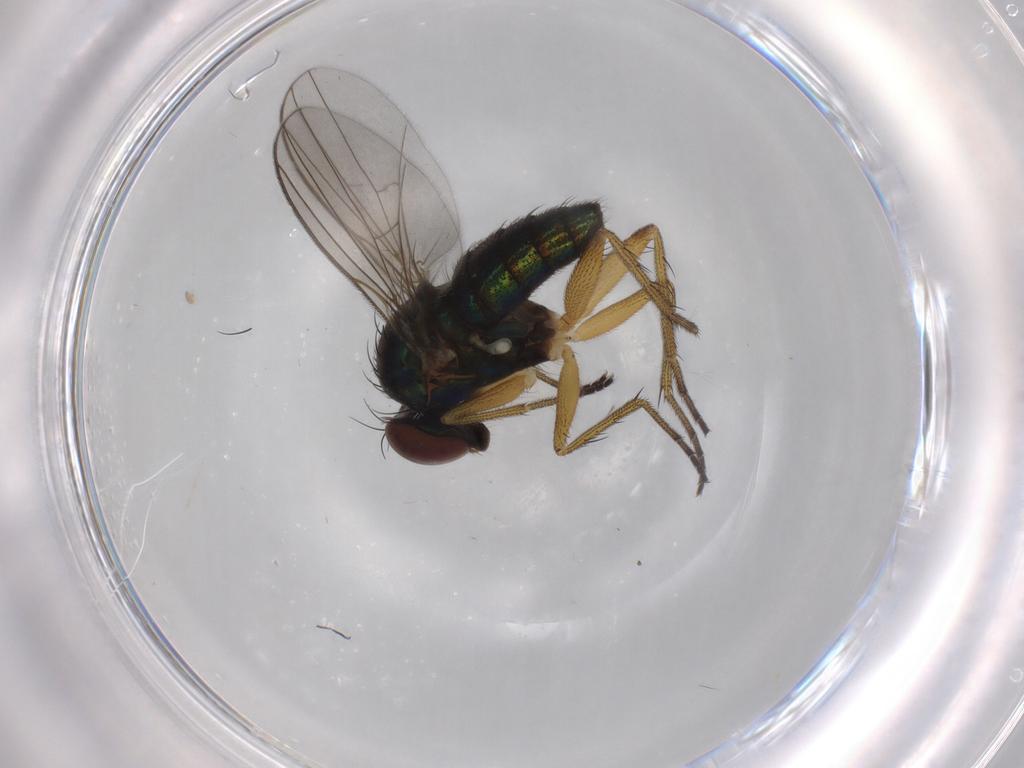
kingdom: Animalia
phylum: Arthropoda
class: Insecta
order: Diptera
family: Dolichopodidae
